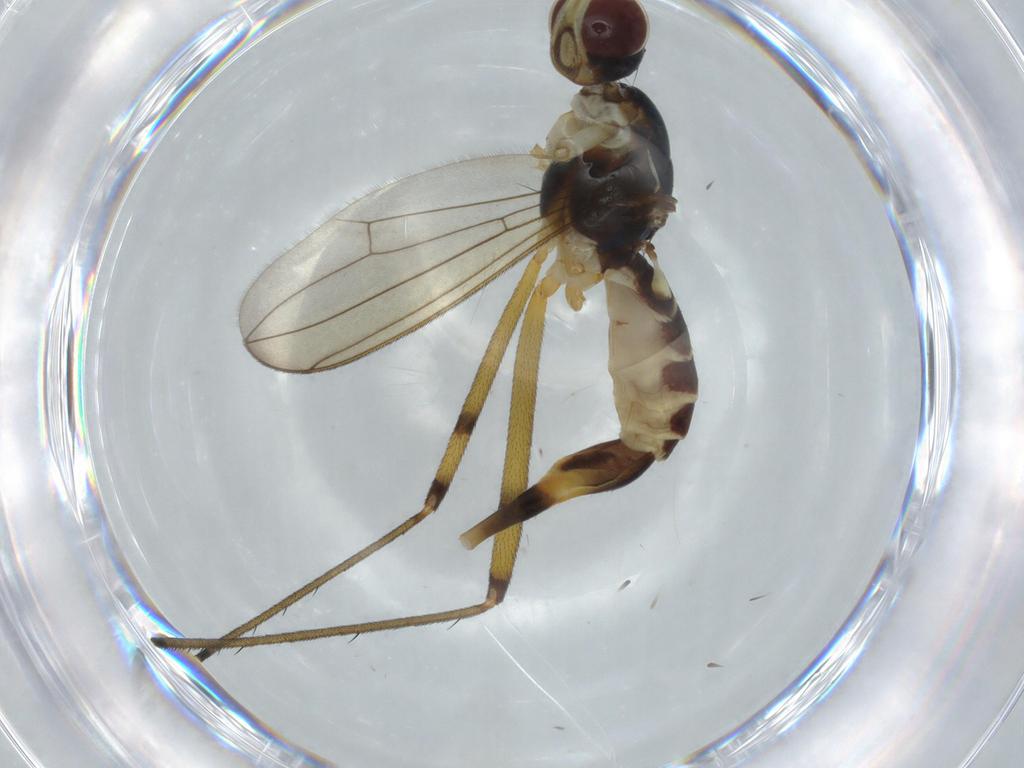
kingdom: Animalia
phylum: Arthropoda
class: Insecta
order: Diptera
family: Micropezidae
